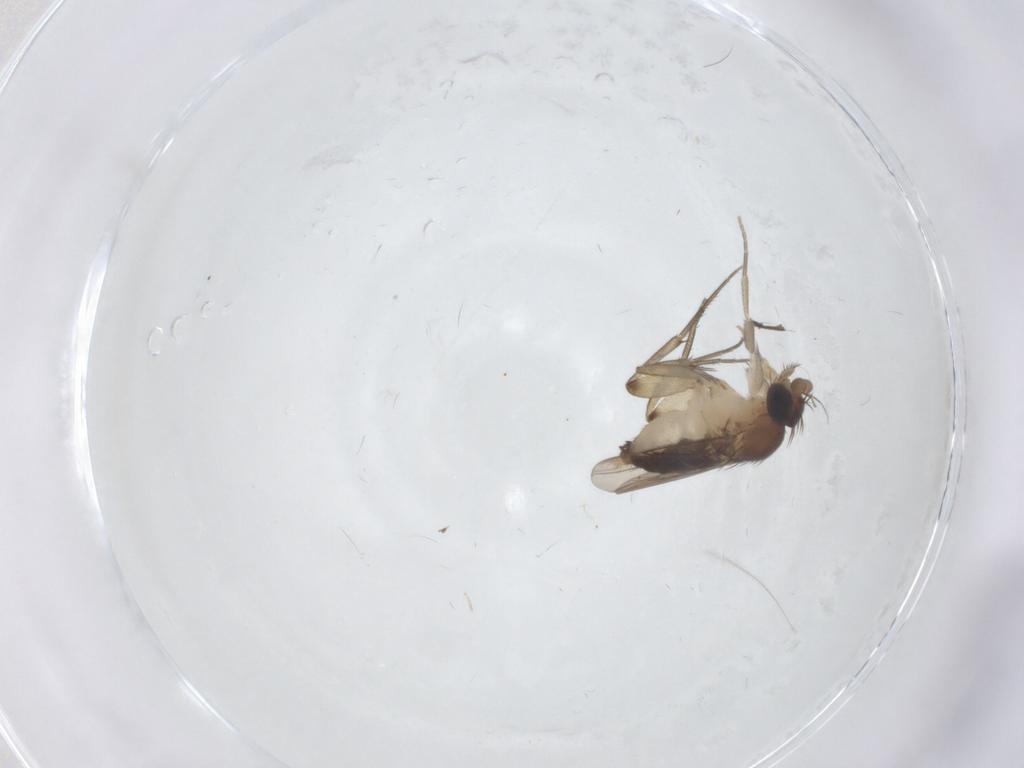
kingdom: Animalia
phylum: Arthropoda
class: Insecta
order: Diptera
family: Phoridae
